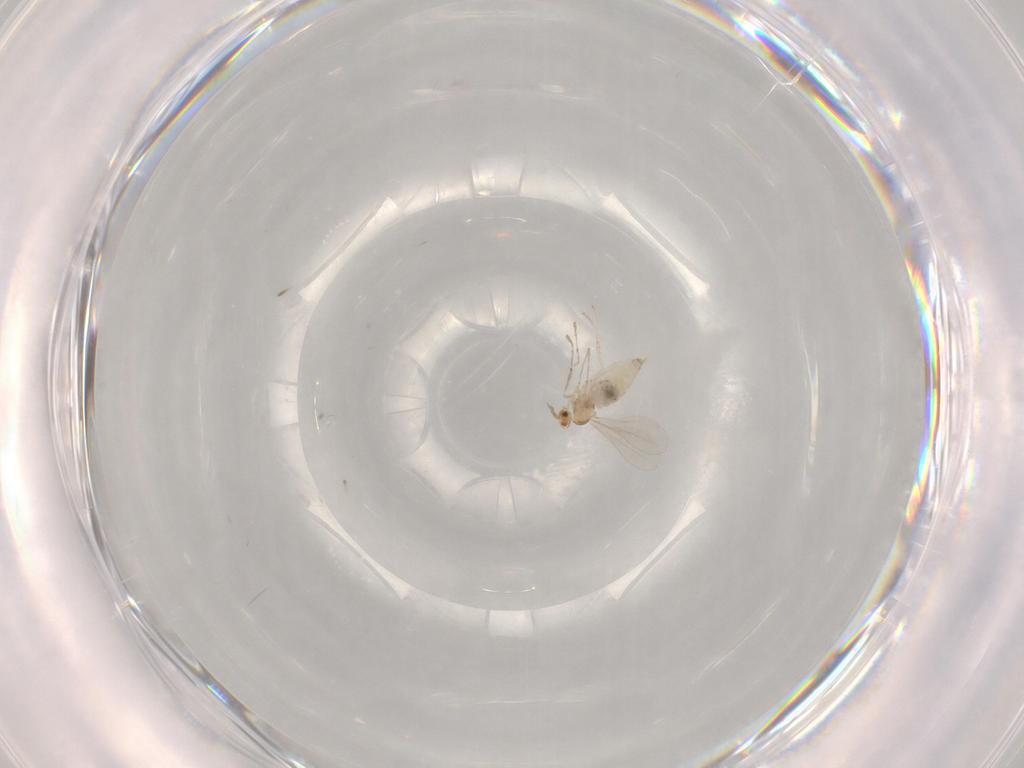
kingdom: Animalia
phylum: Arthropoda
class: Insecta
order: Diptera
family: Cecidomyiidae
